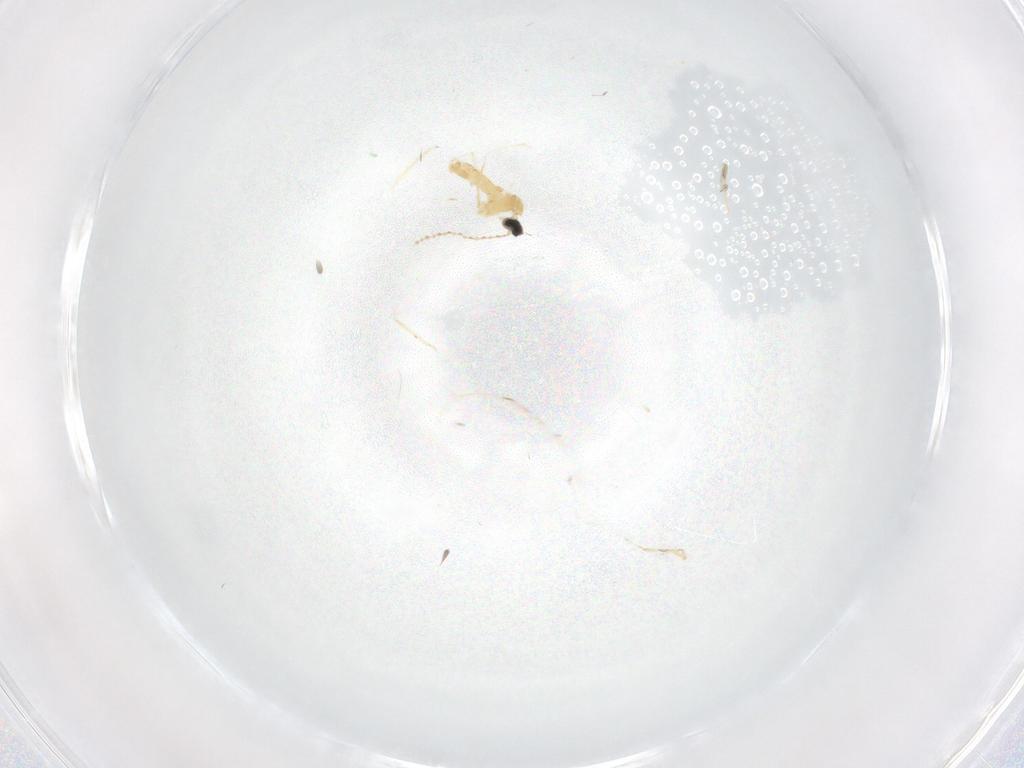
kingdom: Animalia
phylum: Arthropoda
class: Insecta
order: Diptera
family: Cecidomyiidae
